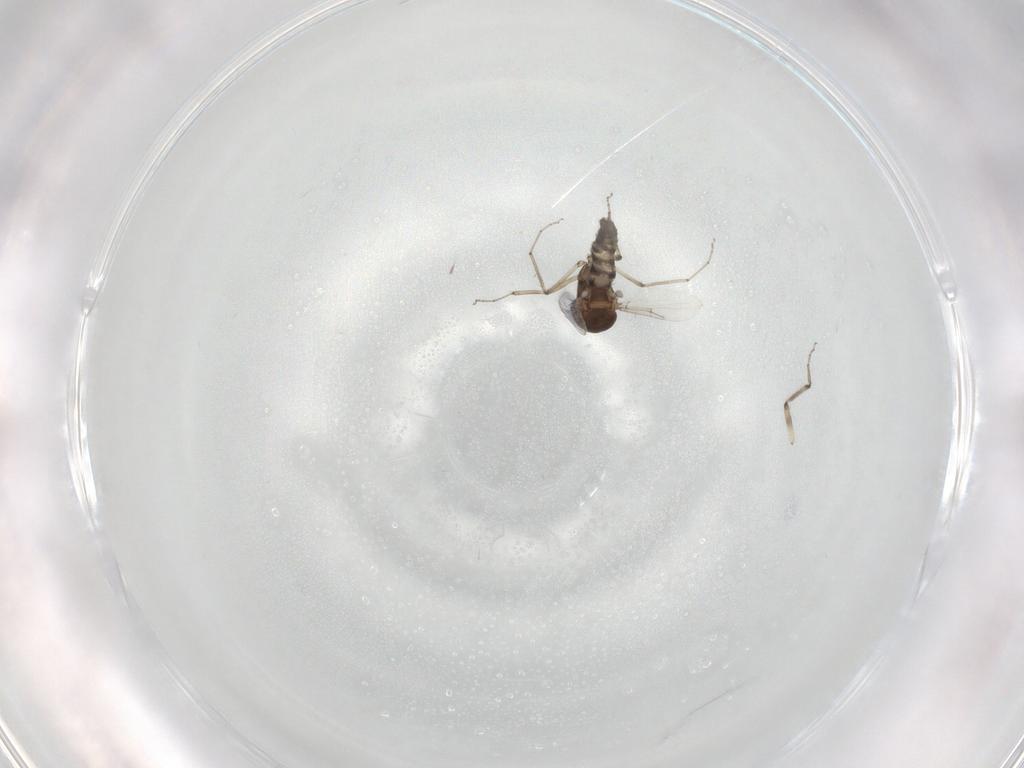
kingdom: Animalia
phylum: Arthropoda
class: Insecta
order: Diptera
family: Ceratopogonidae
